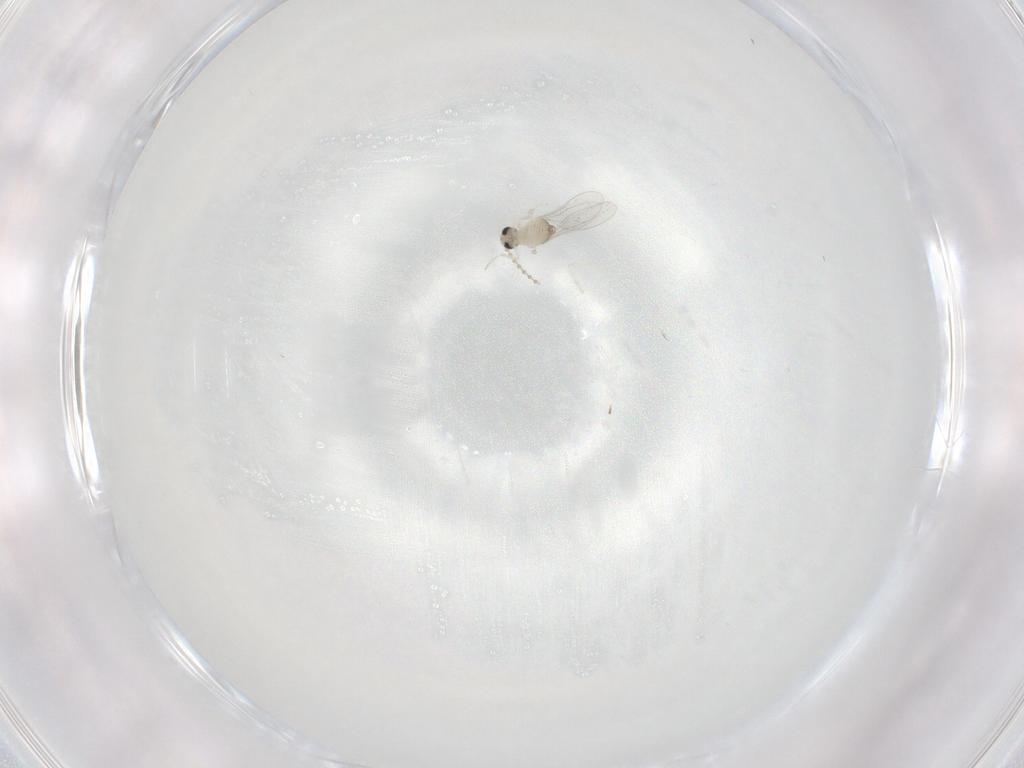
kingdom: Animalia
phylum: Arthropoda
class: Insecta
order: Diptera
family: Cecidomyiidae
